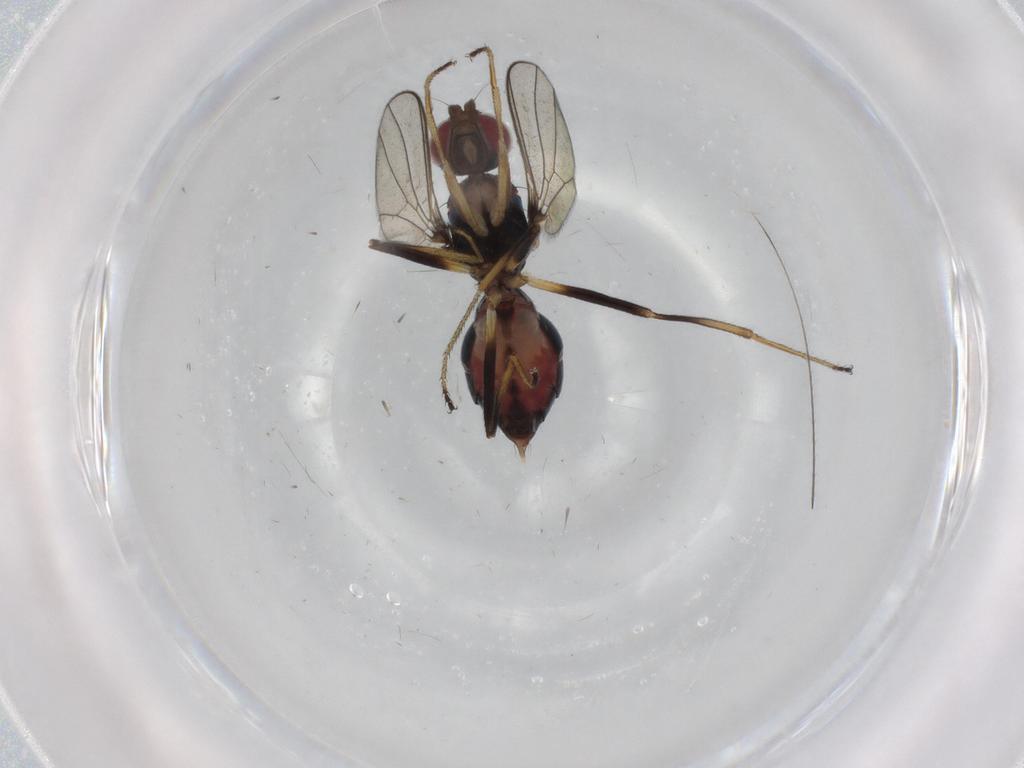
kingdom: Animalia
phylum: Arthropoda
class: Insecta
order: Diptera
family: Sepsidae
